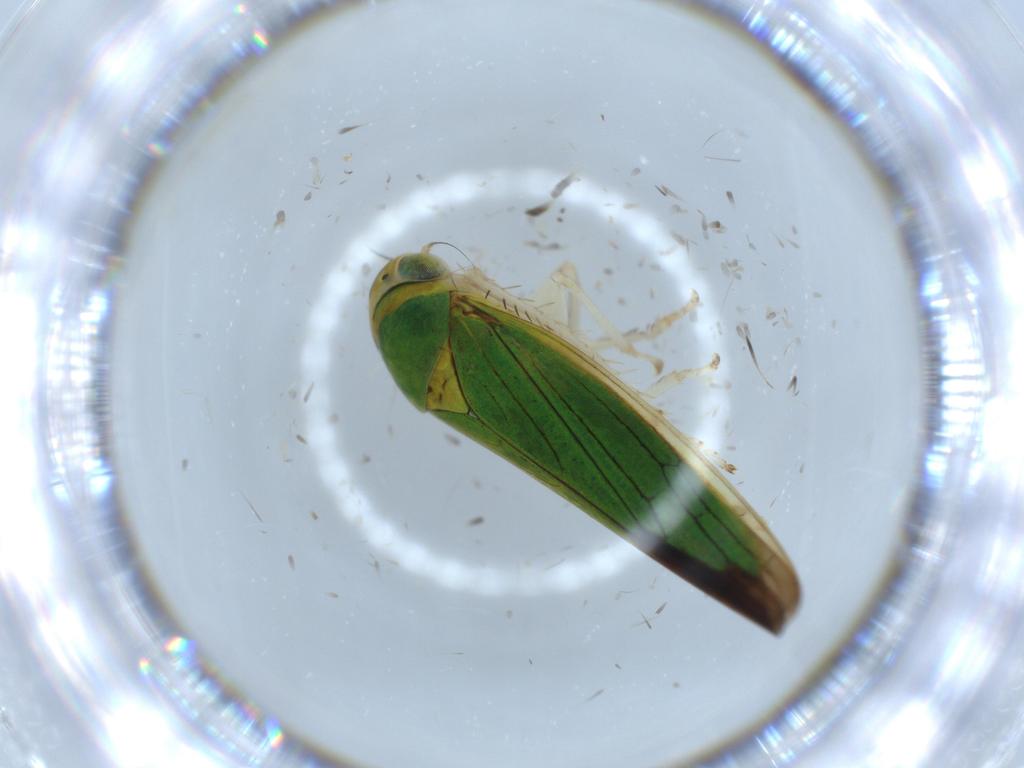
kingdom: Animalia
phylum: Arthropoda
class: Insecta
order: Hemiptera
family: Cicadellidae
